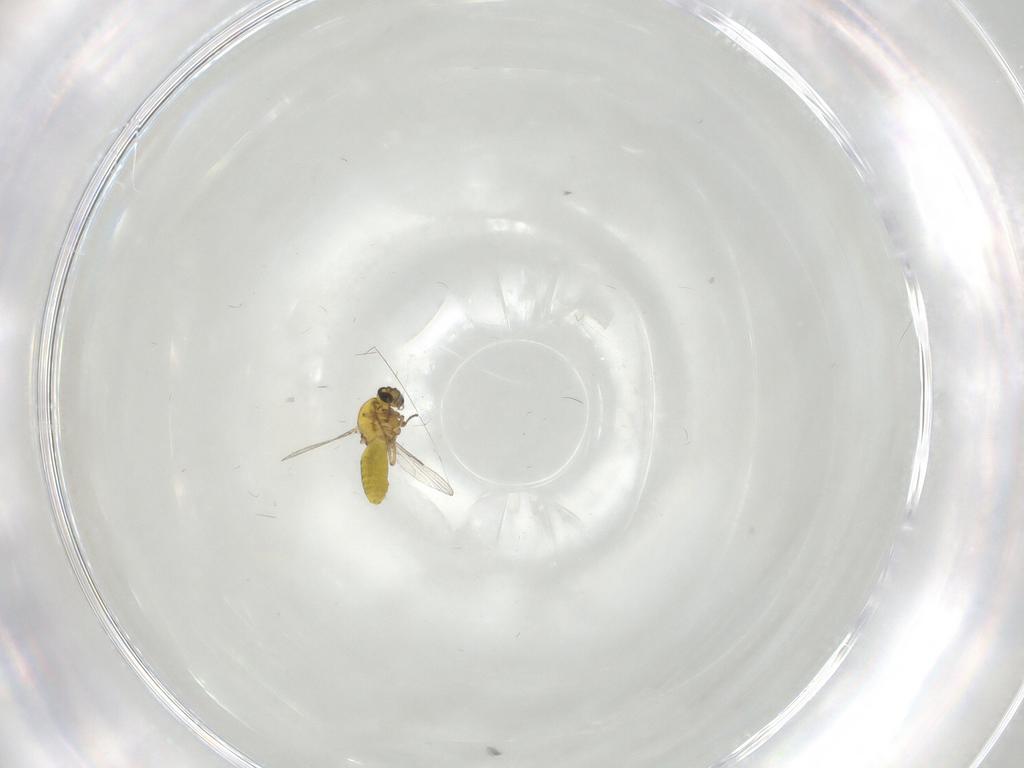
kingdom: Animalia
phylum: Arthropoda
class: Insecta
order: Diptera
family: Ceratopogonidae
